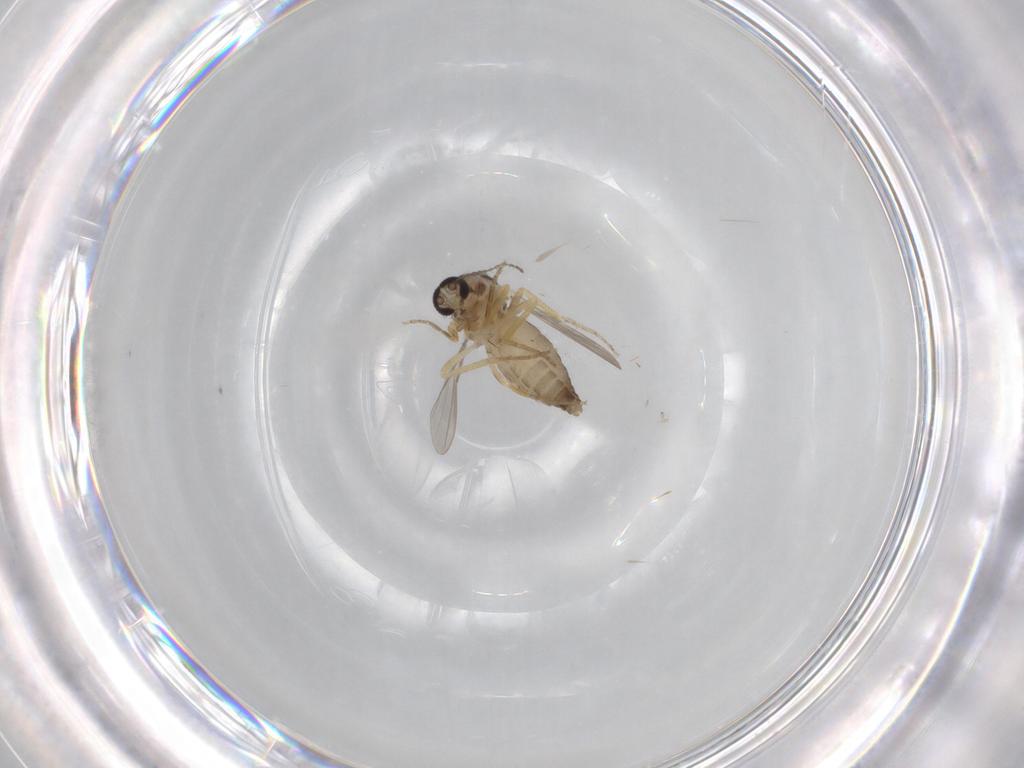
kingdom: Animalia
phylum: Arthropoda
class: Insecta
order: Diptera
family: Ceratopogonidae
